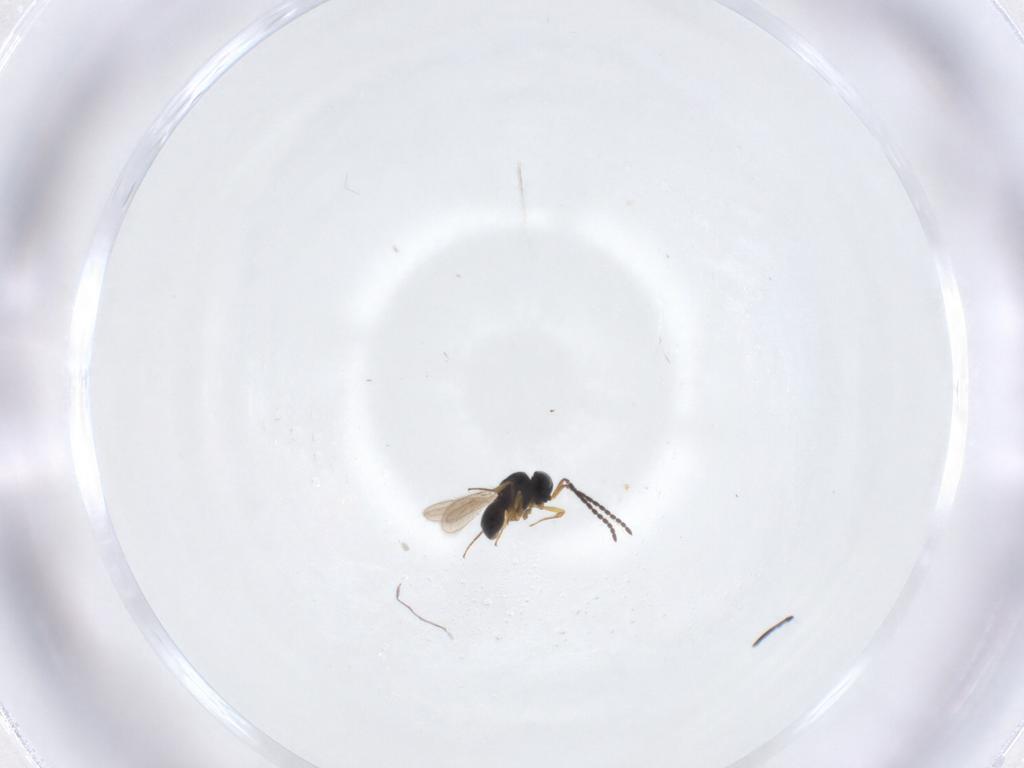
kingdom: Animalia
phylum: Arthropoda
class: Insecta
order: Hymenoptera
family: Scelionidae
